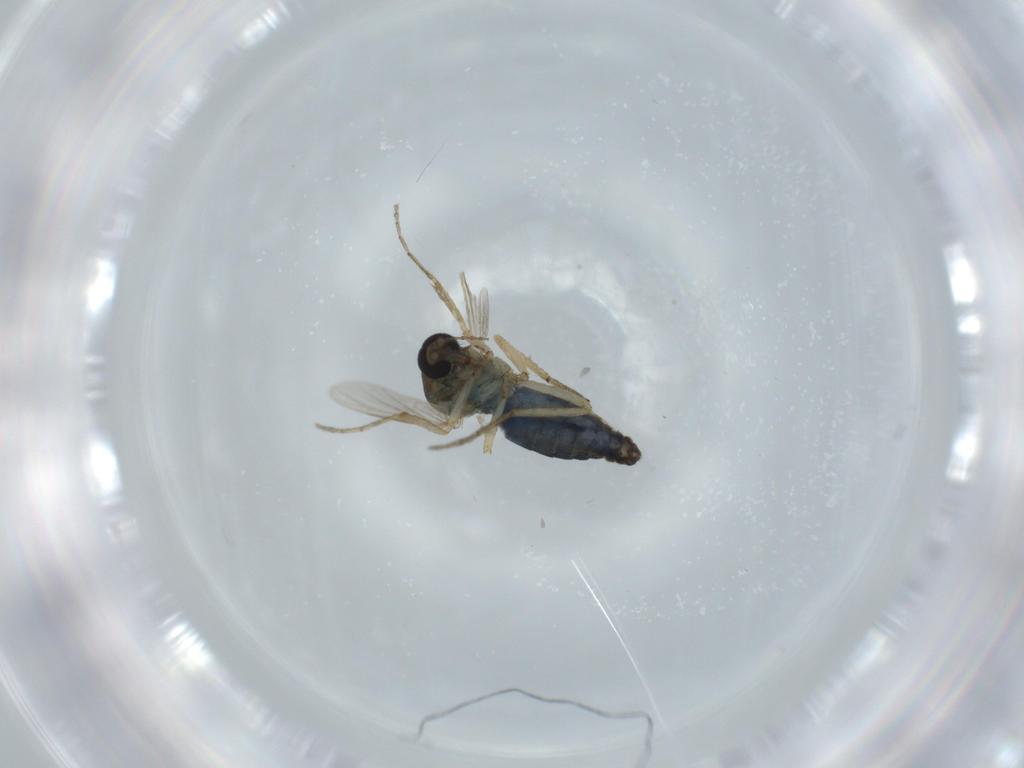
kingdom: Animalia
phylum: Arthropoda
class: Insecta
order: Diptera
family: Ceratopogonidae
